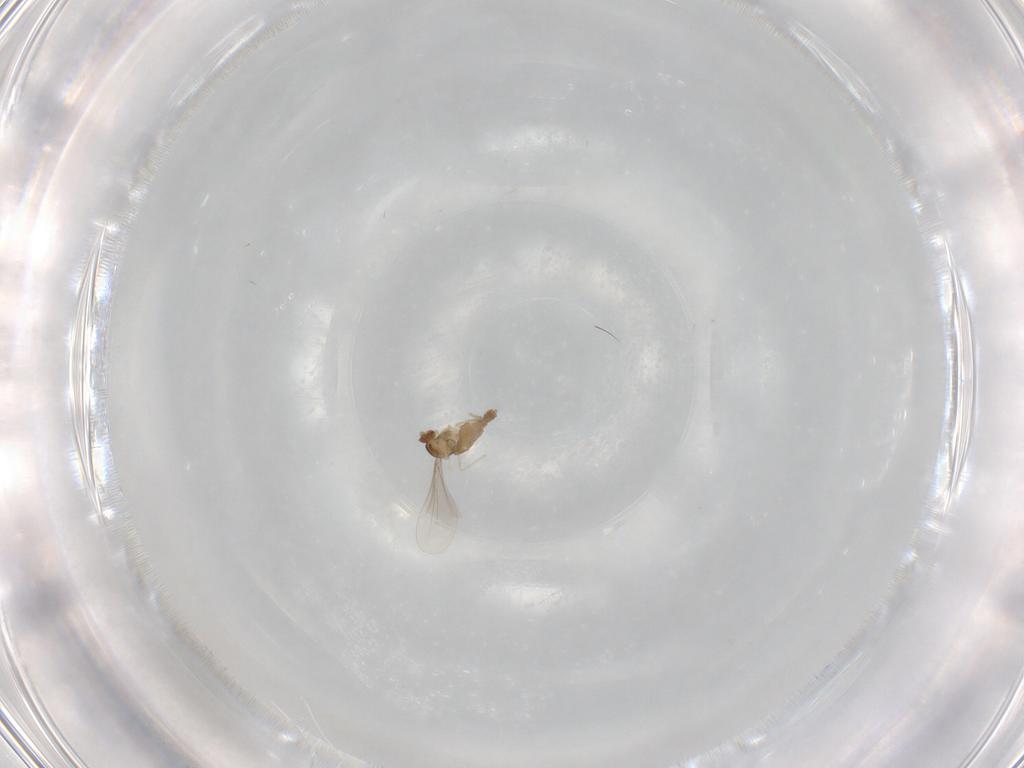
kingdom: Animalia
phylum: Arthropoda
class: Insecta
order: Diptera
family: Cecidomyiidae
